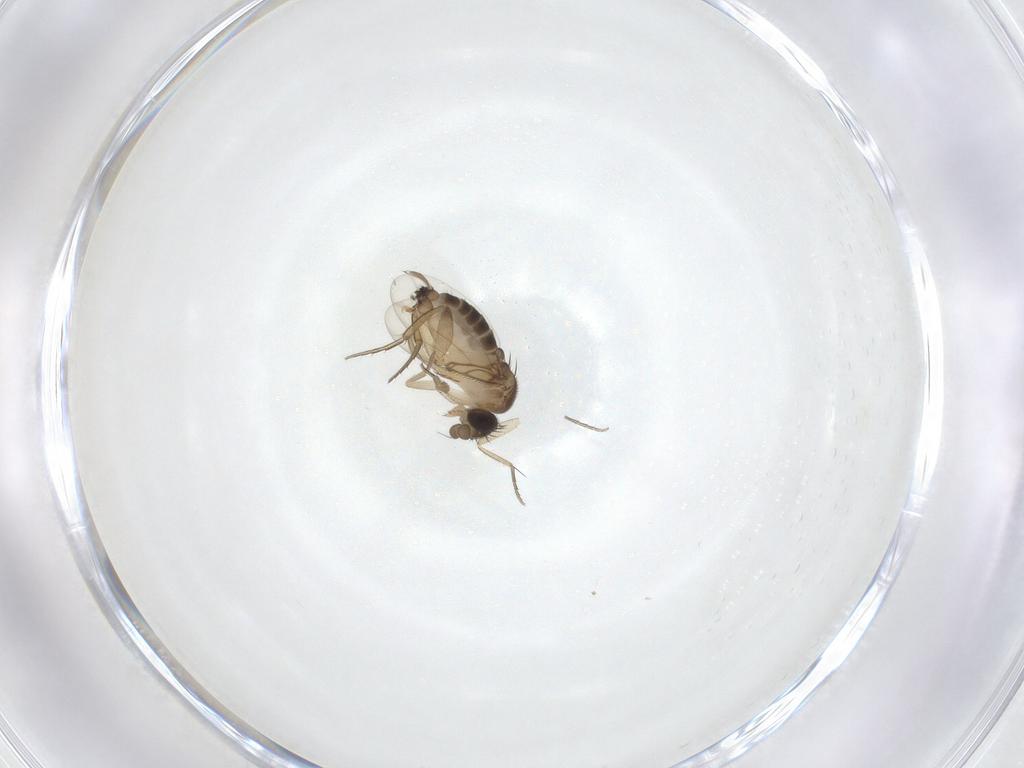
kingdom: Animalia
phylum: Arthropoda
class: Insecta
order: Diptera
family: Phoridae
